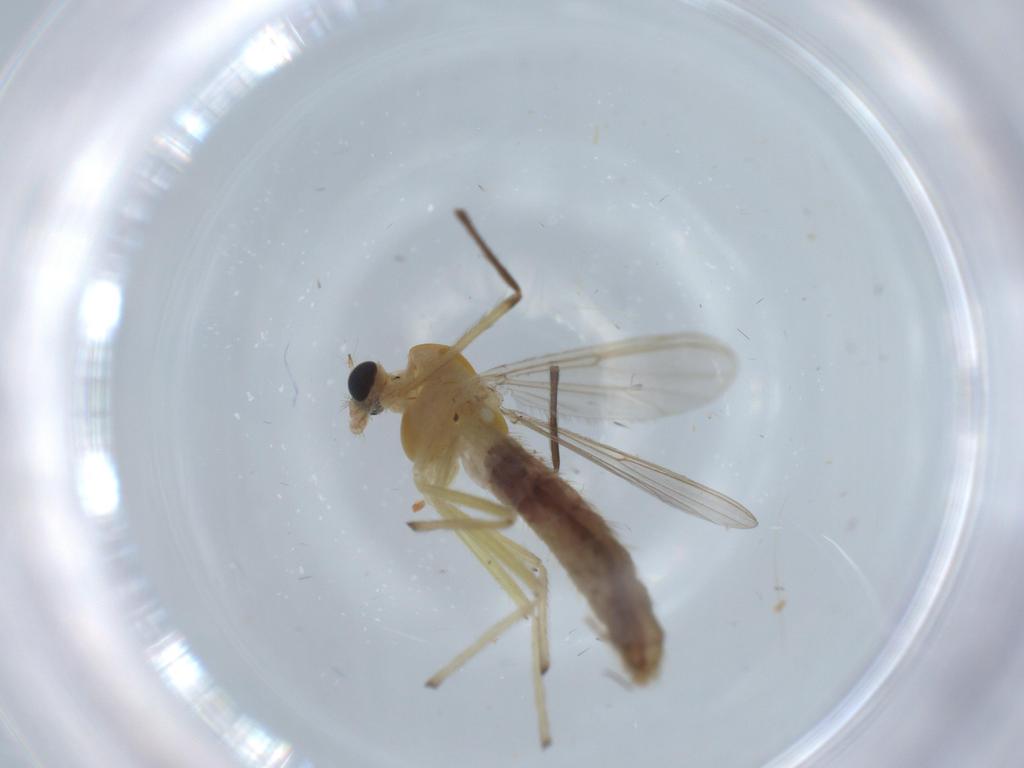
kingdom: Animalia
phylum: Arthropoda
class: Insecta
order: Diptera
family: Chironomidae
